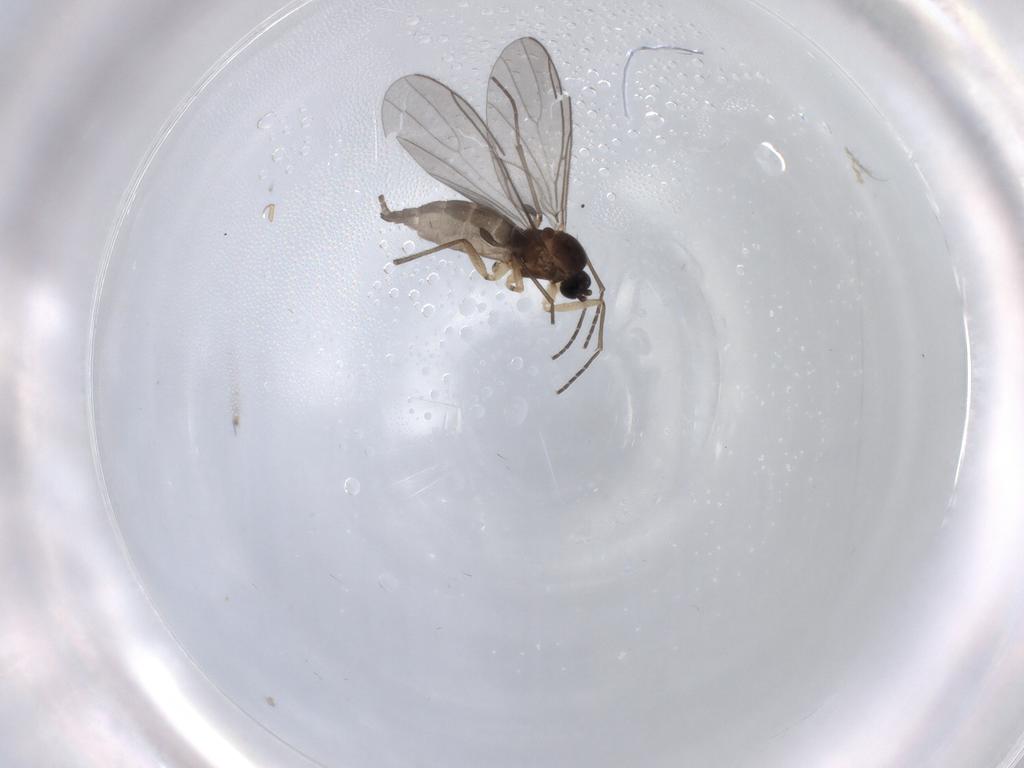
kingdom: Animalia
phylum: Arthropoda
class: Insecta
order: Diptera
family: Sciaridae
